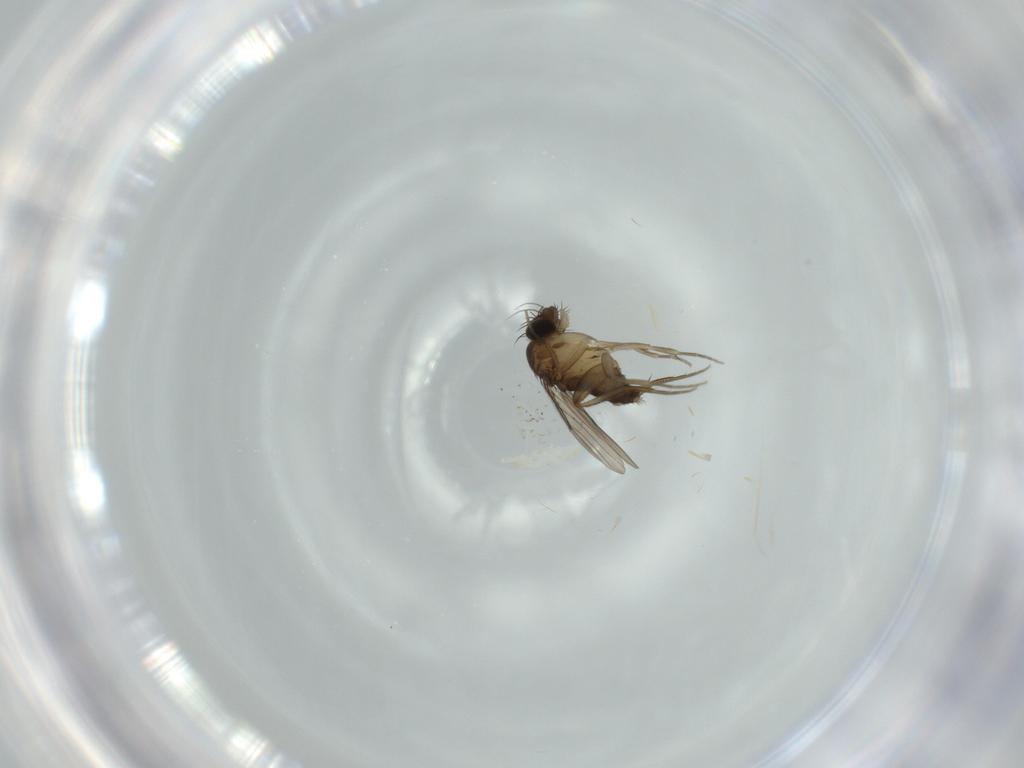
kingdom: Animalia
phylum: Arthropoda
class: Insecta
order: Diptera
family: Phoridae
